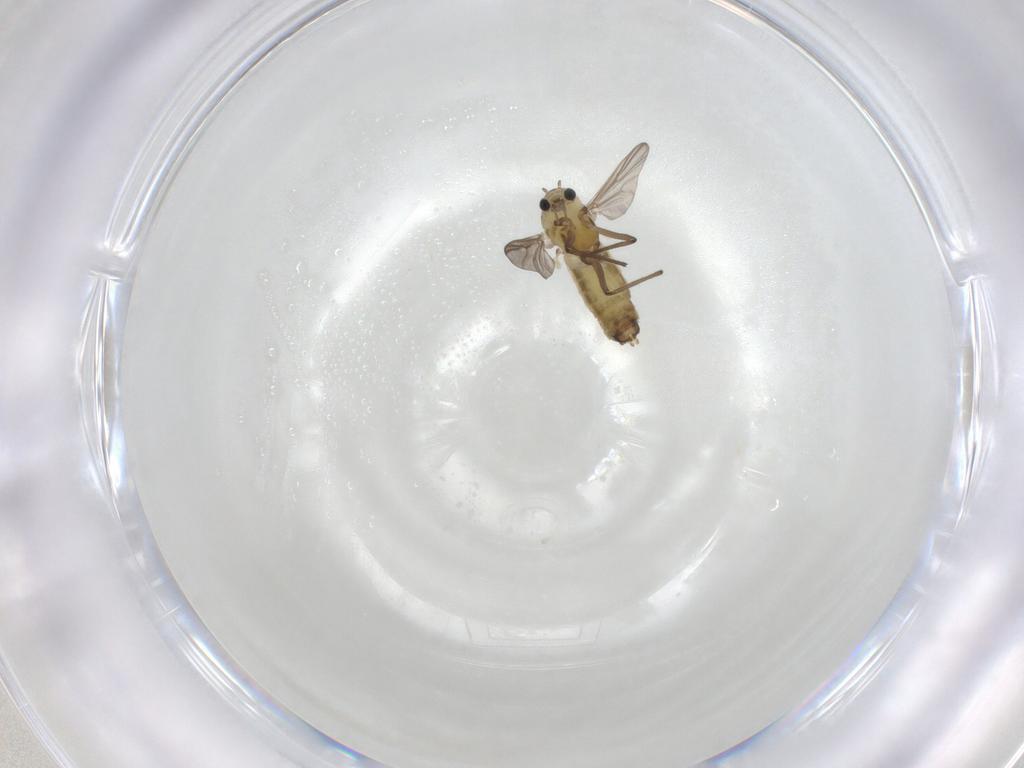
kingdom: Animalia
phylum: Arthropoda
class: Insecta
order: Diptera
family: Chironomidae
